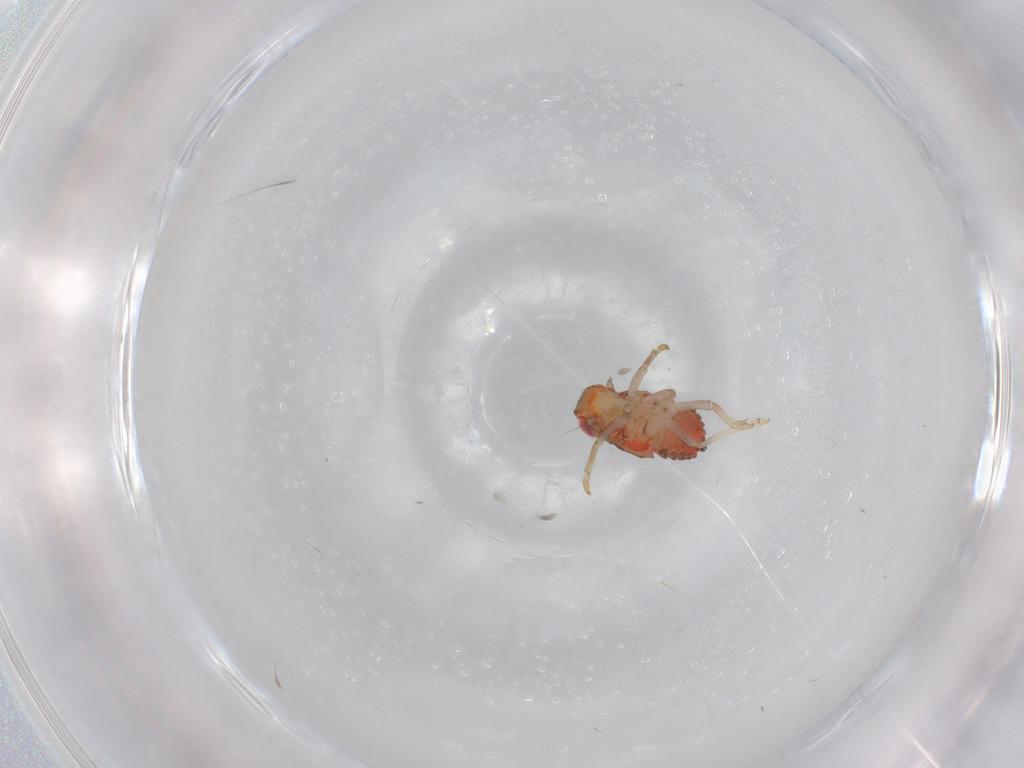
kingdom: Animalia
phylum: Arthropoda
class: Insecta
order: Hemiptera
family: Issidae
